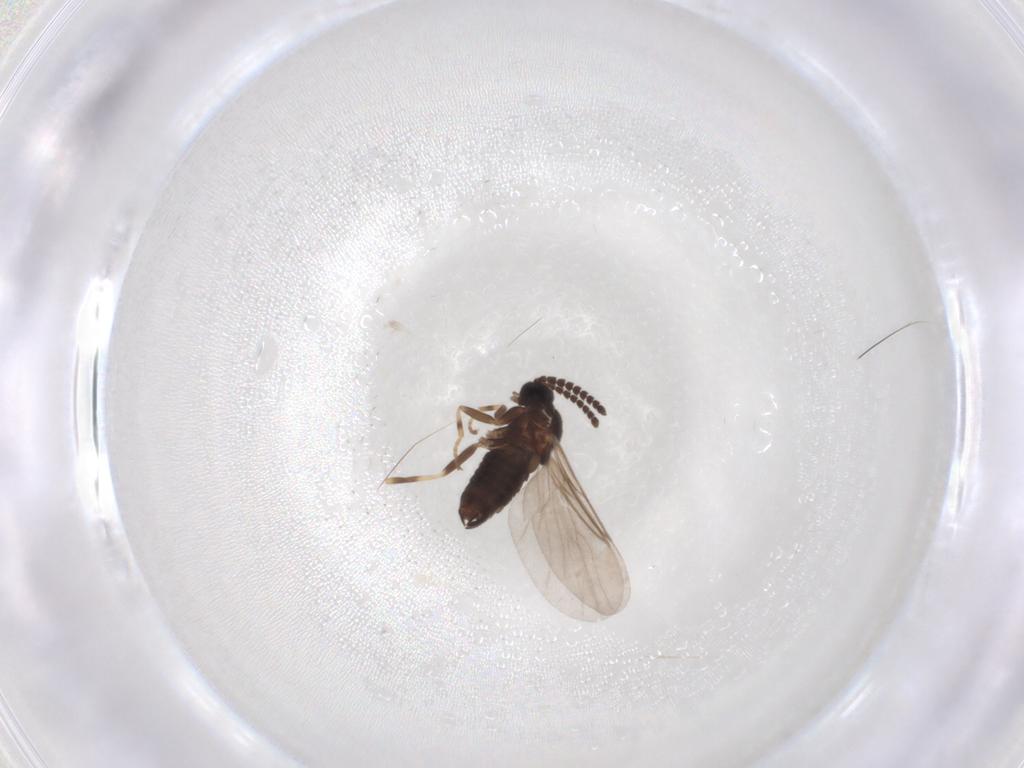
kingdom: Animalia
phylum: Arthropoda
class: Insecta
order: Diptera
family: Scatopsidae
